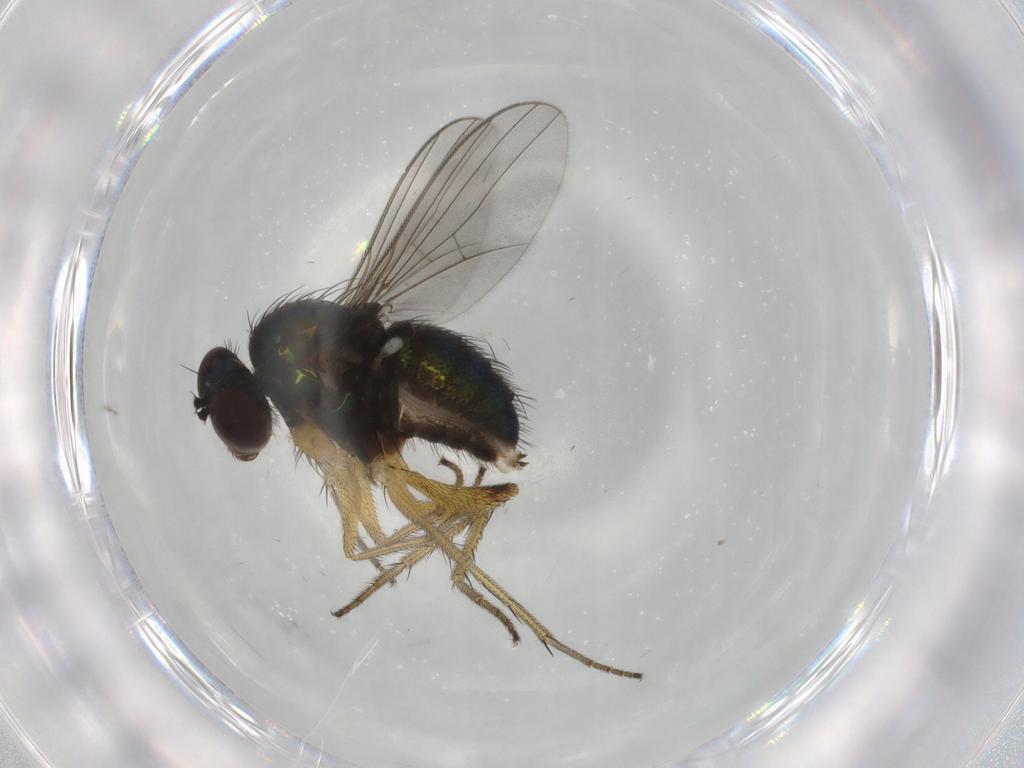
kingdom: Animalia
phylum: Arthropoda
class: Insecta
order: Diptera
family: Dolichopodidae
